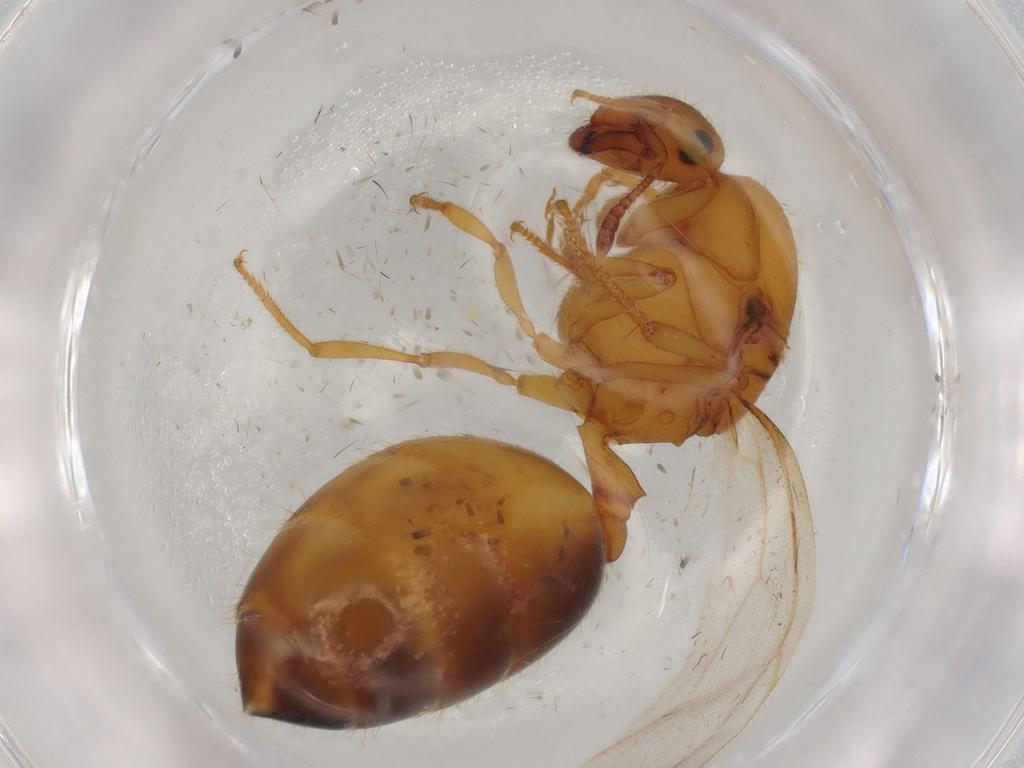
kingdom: Animalia
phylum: Arthropoda
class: Insecta
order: Hymenoptera
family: Formicidae
